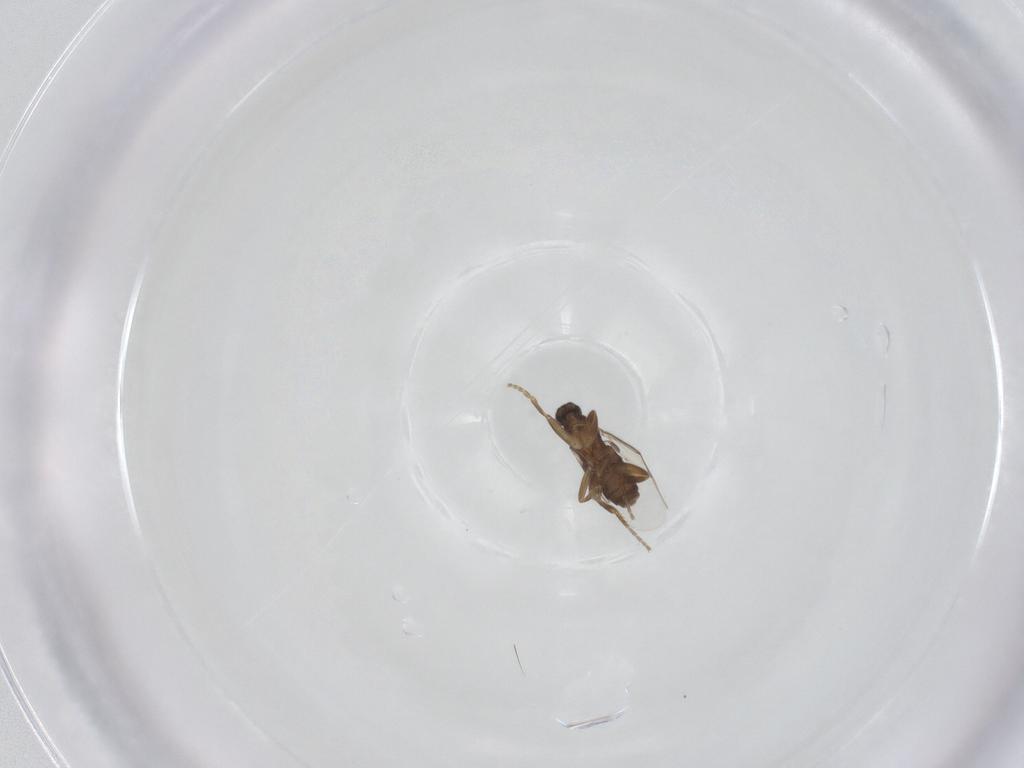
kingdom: Animalia
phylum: Arthropoda
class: Insecta
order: Diptera
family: Phoridae
